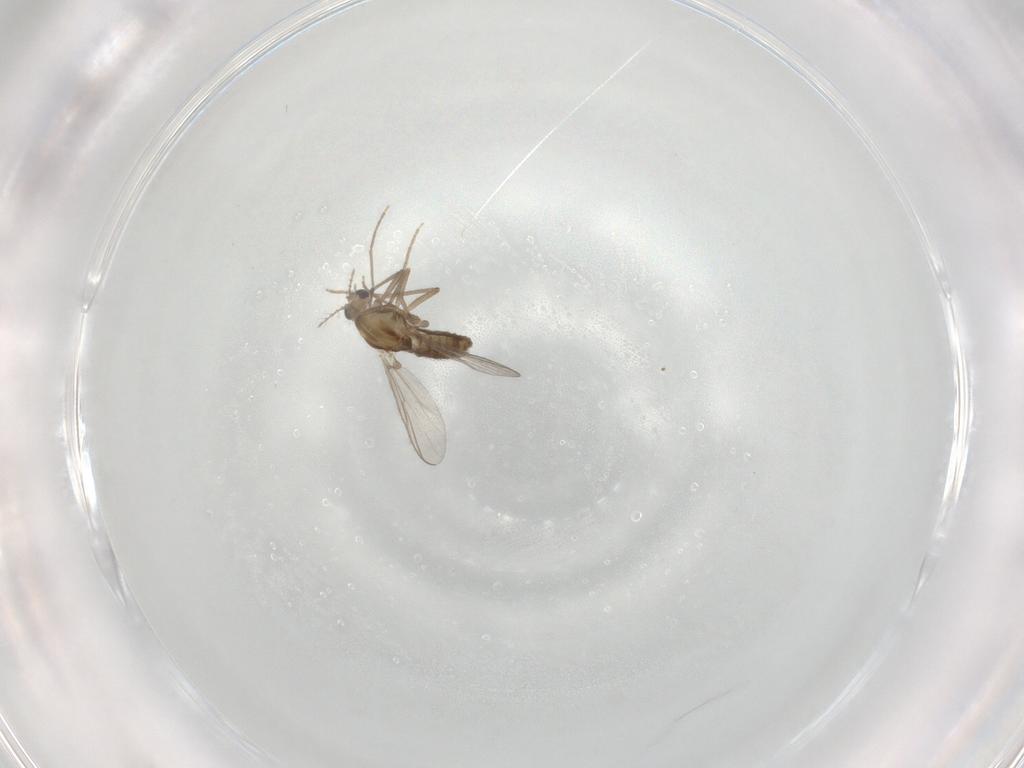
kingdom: Animalia
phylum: Arthropoda
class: Insecta
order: Diptera
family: Chironomidae
